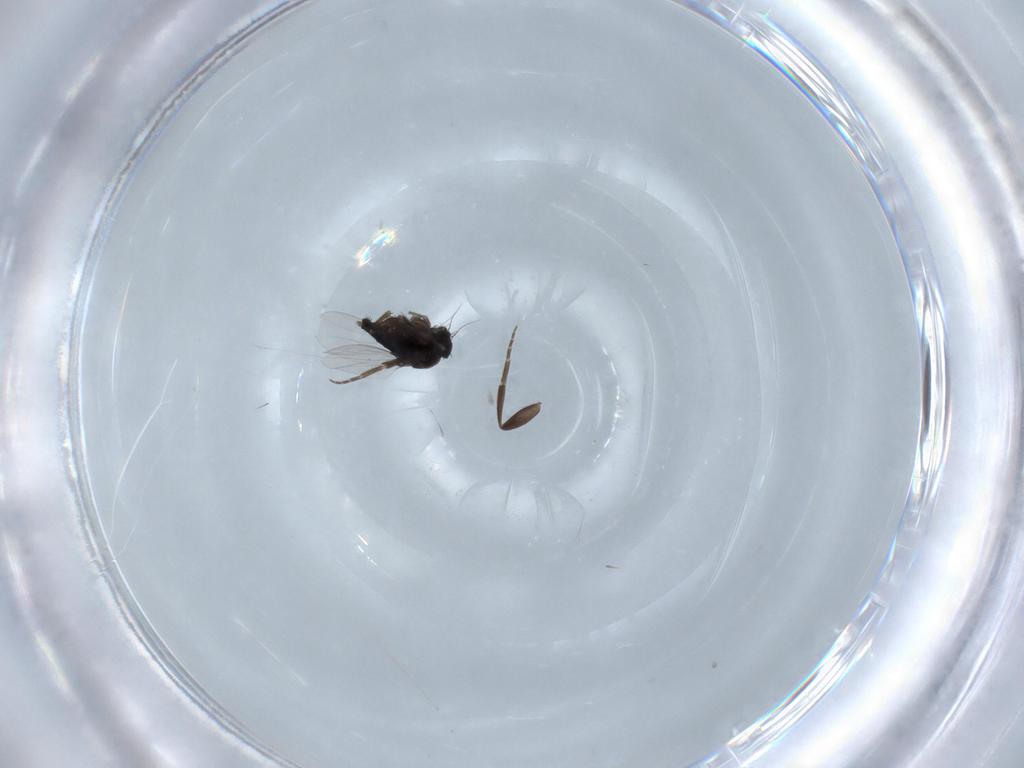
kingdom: Animalia
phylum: Arthropoda
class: Insecta
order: Diptera
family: Phoridae
